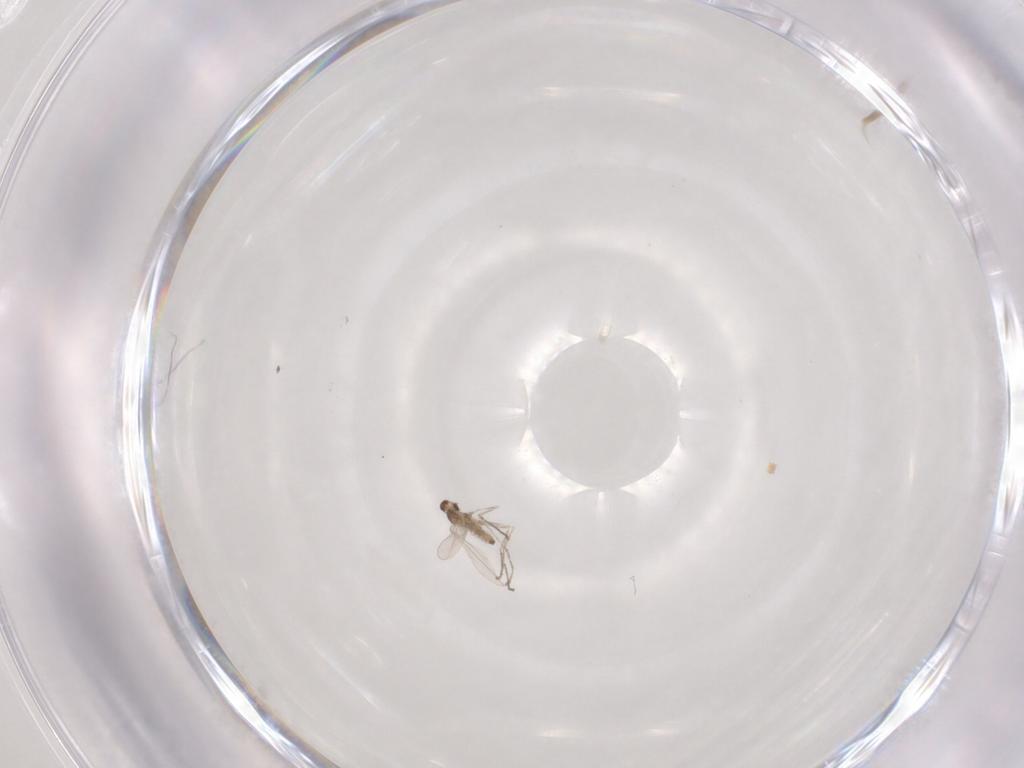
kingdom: Animalia
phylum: Arthropoda
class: Insecta
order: Diptera
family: Cecidomyiidae
